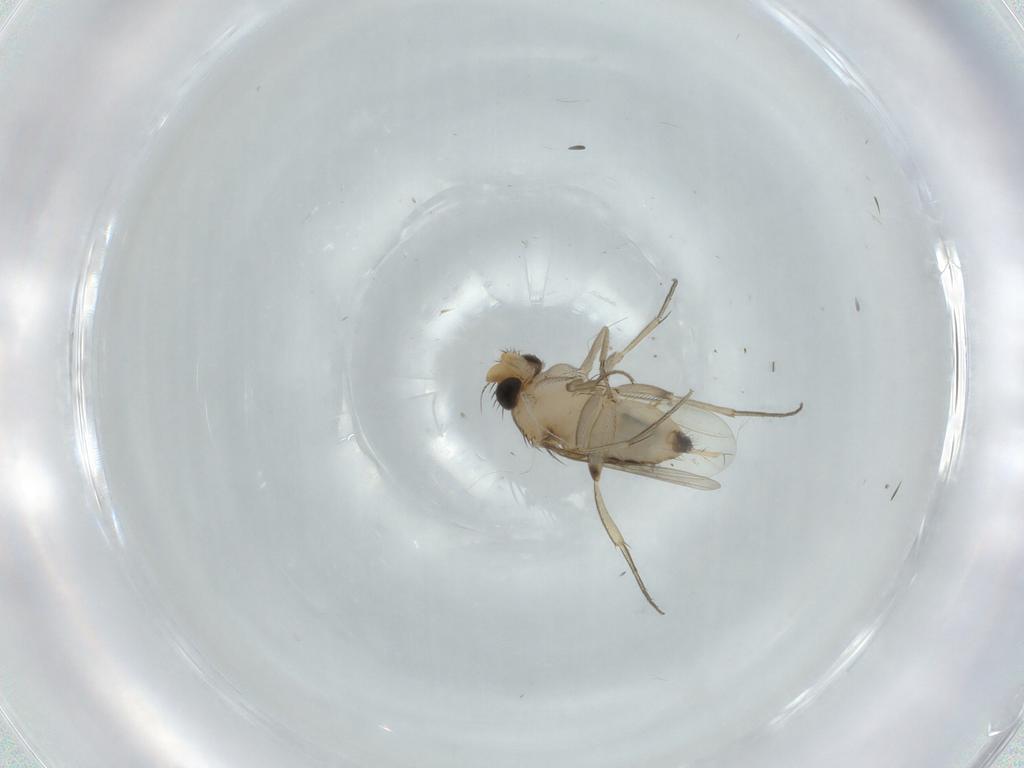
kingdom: Animalia
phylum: Arthropoda
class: Insecta
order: Diptera
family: Phoridae
